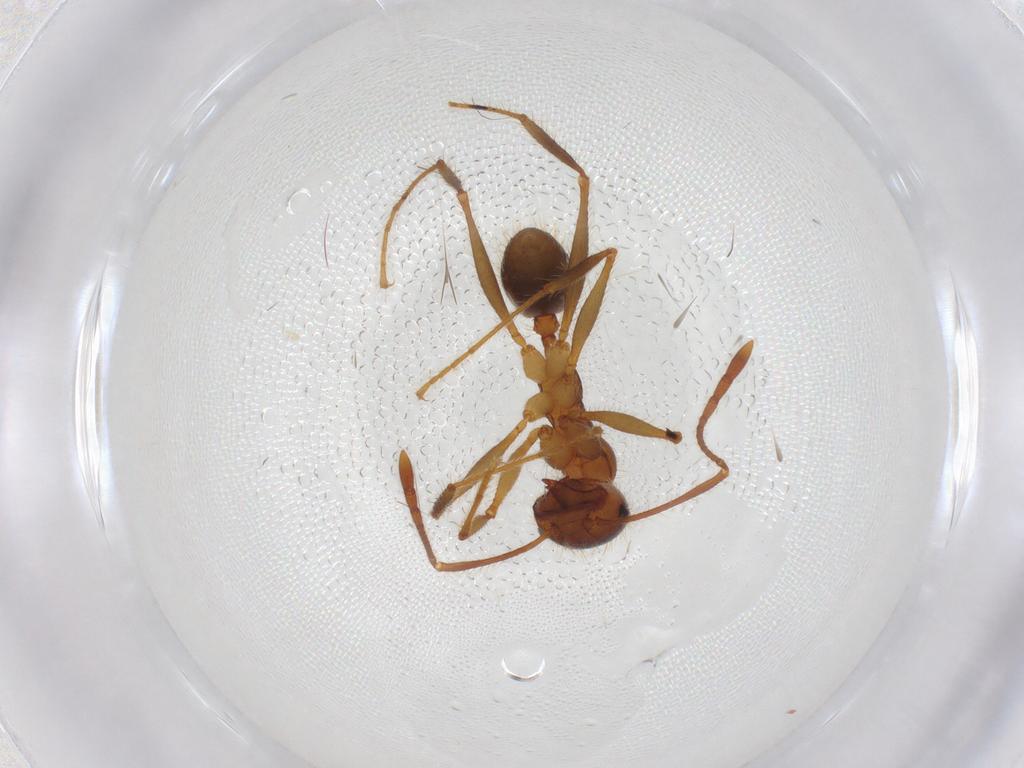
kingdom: Animalia
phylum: Arthropoda
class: Insecta
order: Hymenoptera
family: Formicidae
